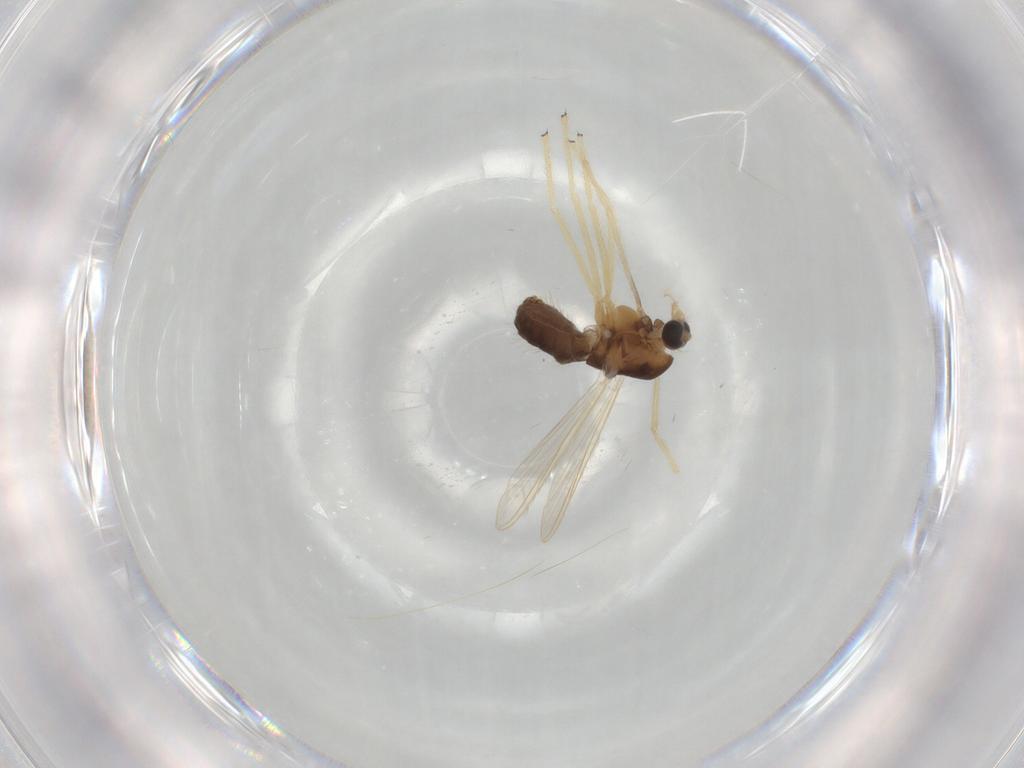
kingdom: Animalia
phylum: Arthropoda
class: Insecta
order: Diptera
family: Chironomidae
